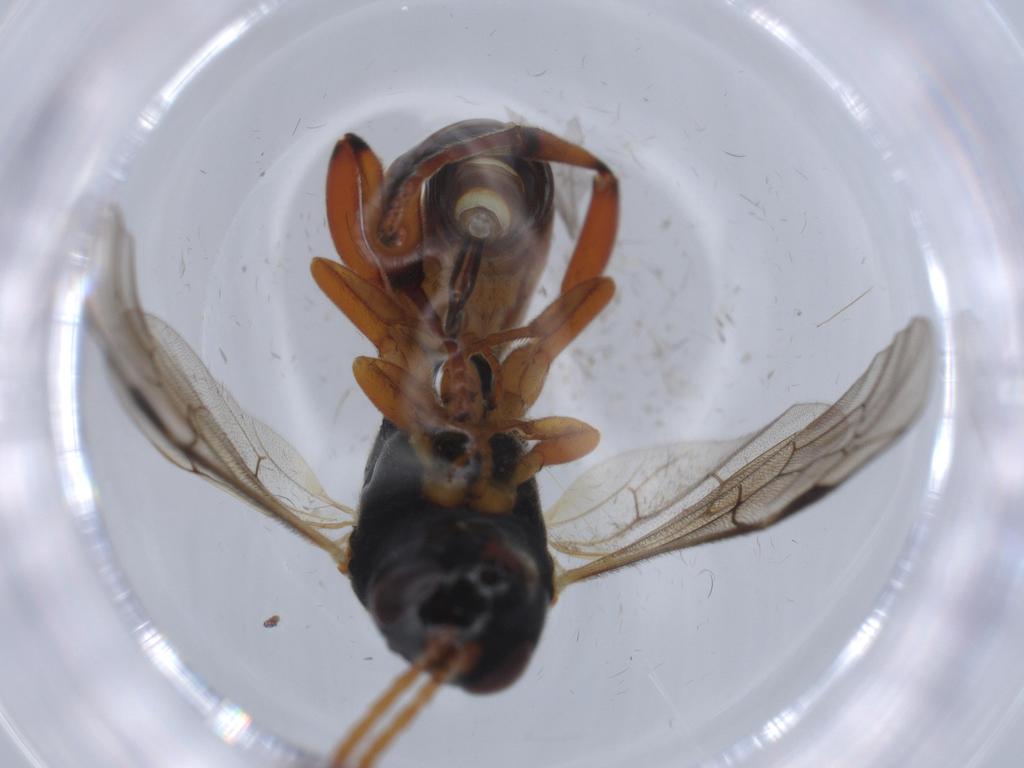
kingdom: Animalia
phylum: Arthropoda
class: Insecta
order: Hymenoptera
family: Ichneumonidae
